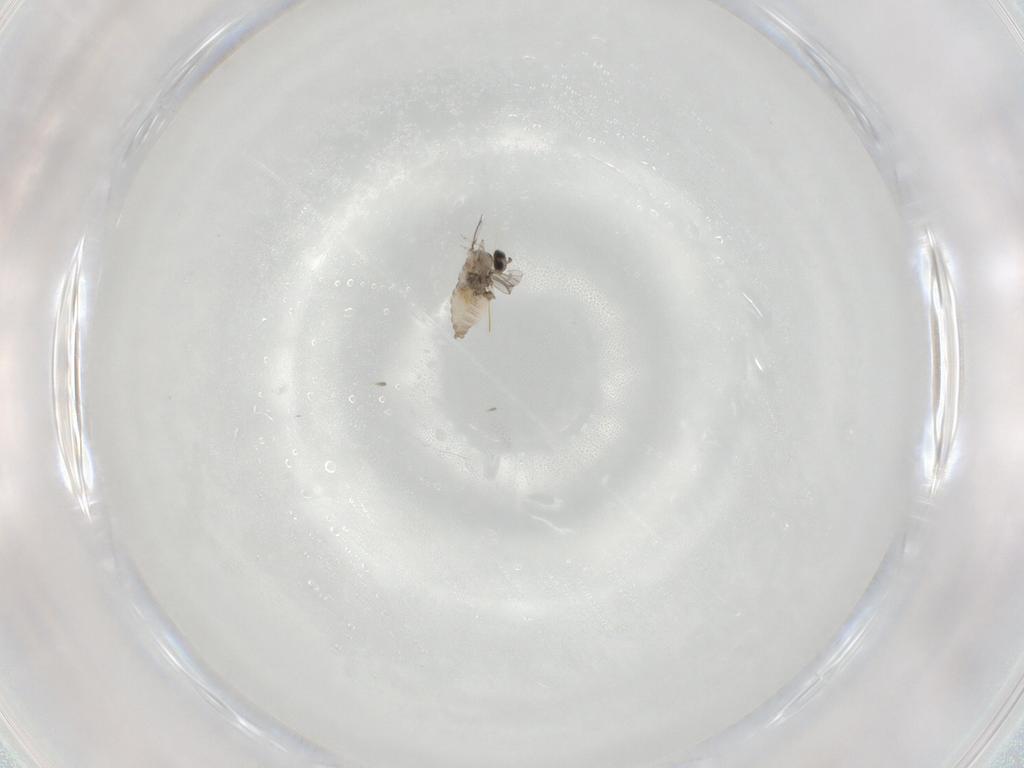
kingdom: Animalia
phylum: Arthropoda
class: Insecta
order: Diptera
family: Cecidomyiidae
